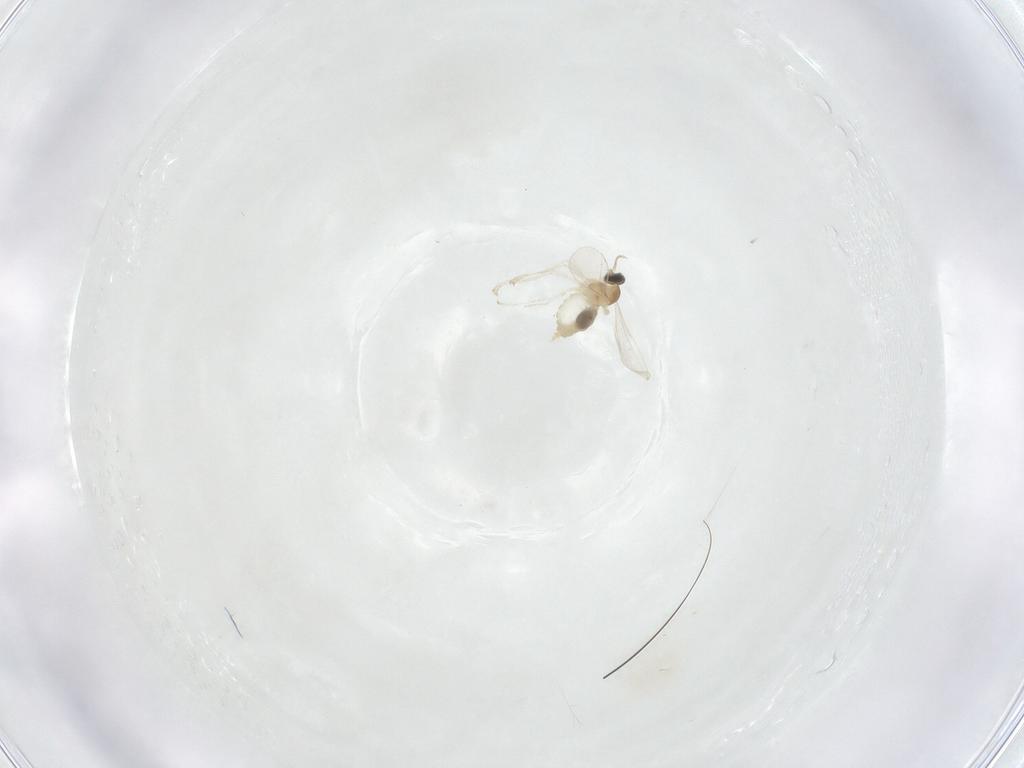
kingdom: Animalia
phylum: Arthropoda
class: Insecta
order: Diptera
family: Cecidomyiidae
